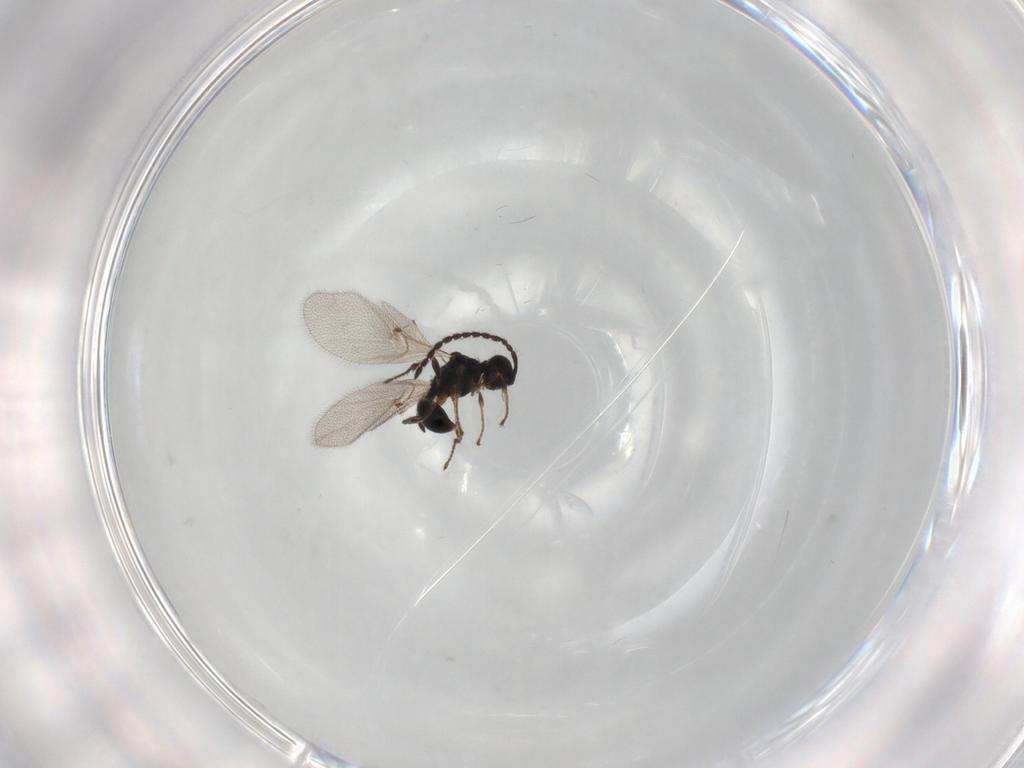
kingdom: Animalia
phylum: Arthropoda
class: Insecta
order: Hymenoptera
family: Diapriidae
